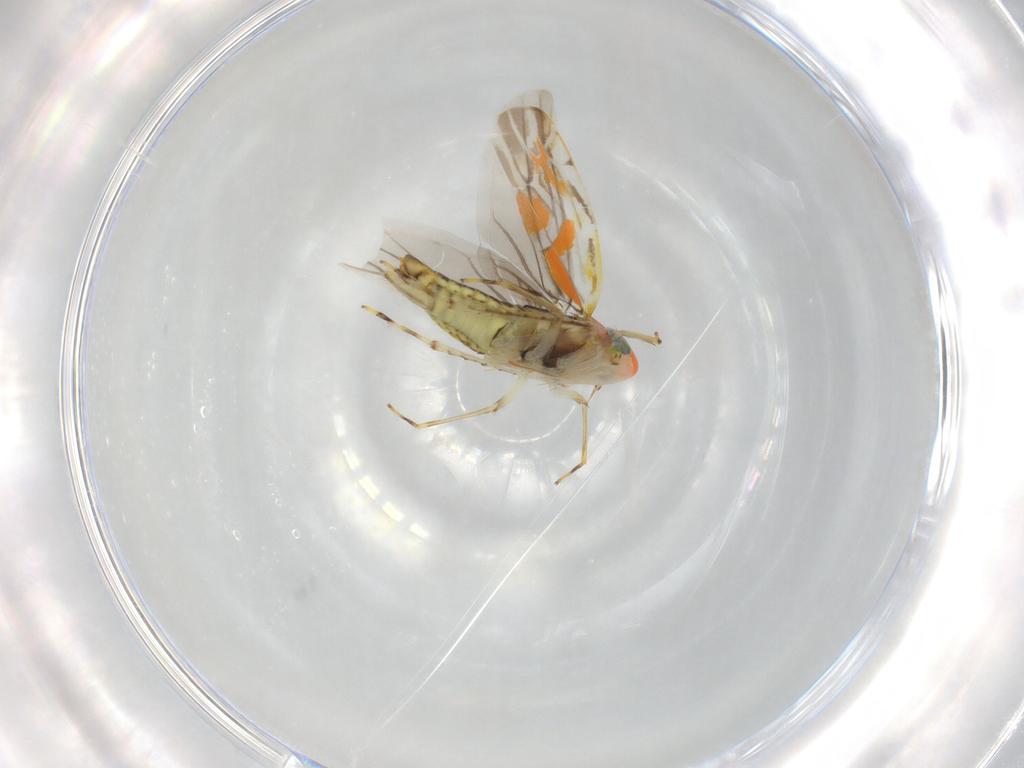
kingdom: Animalia
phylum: Arthropoda
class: Insecta
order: Hemiptera
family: Cicadellidae
